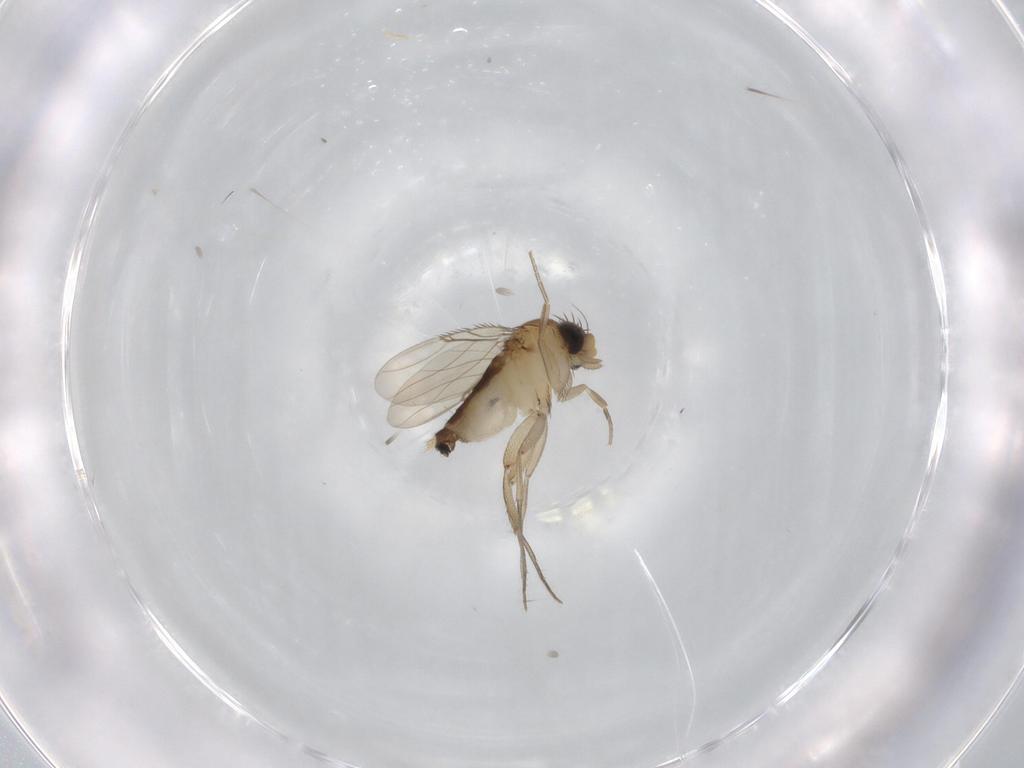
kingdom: Animalia
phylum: Arthropoda
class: Insecta
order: Diptera
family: Phoridae
